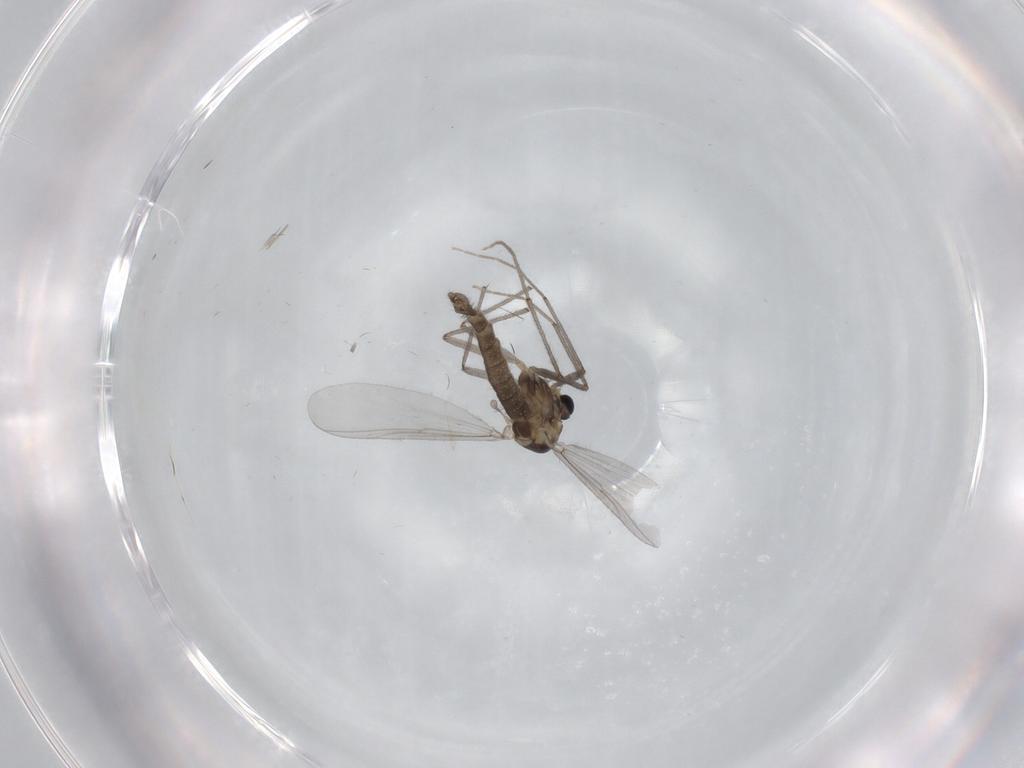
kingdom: Animalia
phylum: Arthropoda
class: Insecta
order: Diptera
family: Chironomidae
